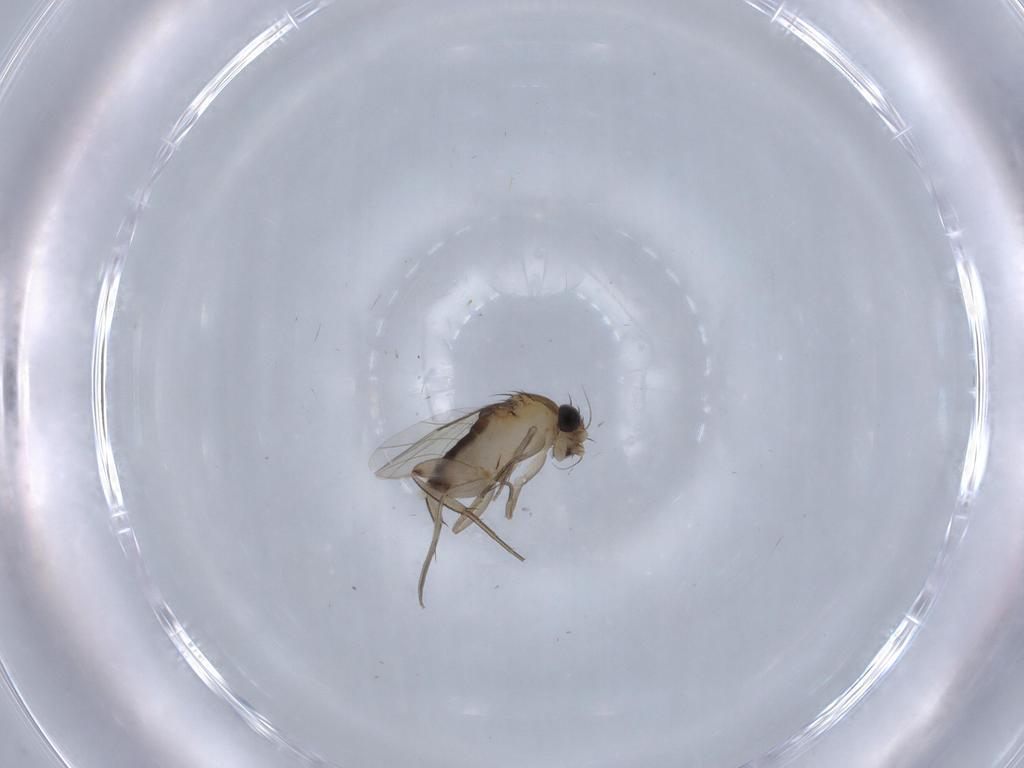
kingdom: Animalia
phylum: Arthropoda
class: Insecta
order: Diptera
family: Phoridae
